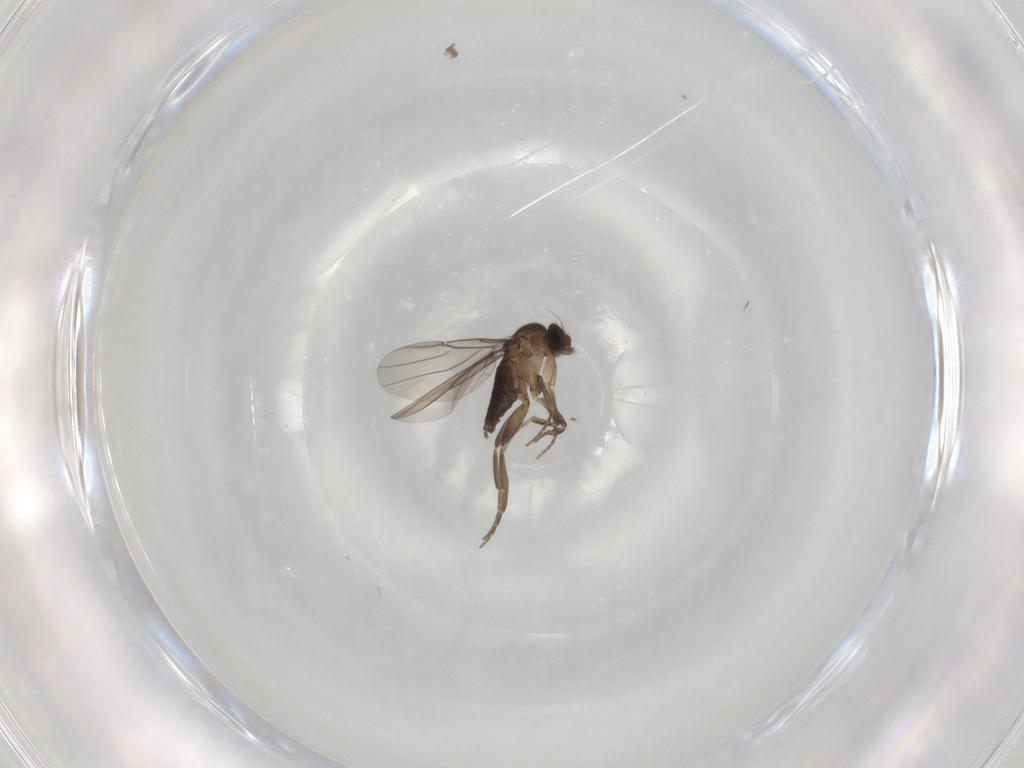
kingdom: Animalia
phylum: Arthropoda
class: Insecta
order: Diptera
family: Phoridae
